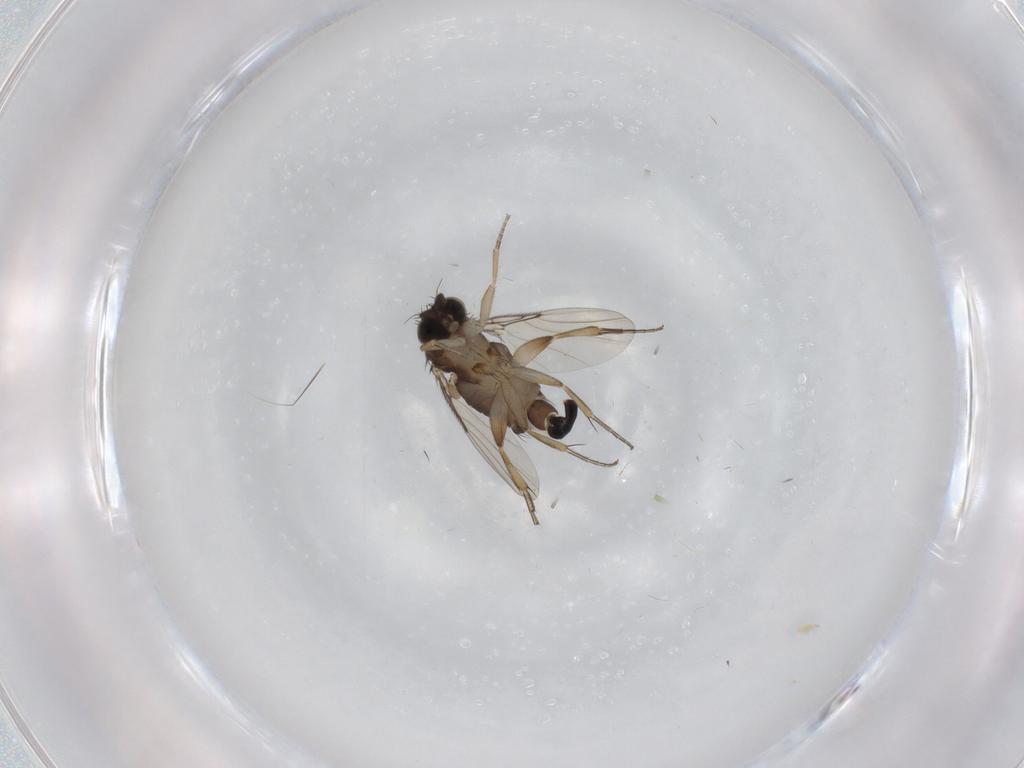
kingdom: Animalia
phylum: Arthropoda
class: Insecta
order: Diptera
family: Phoridae
